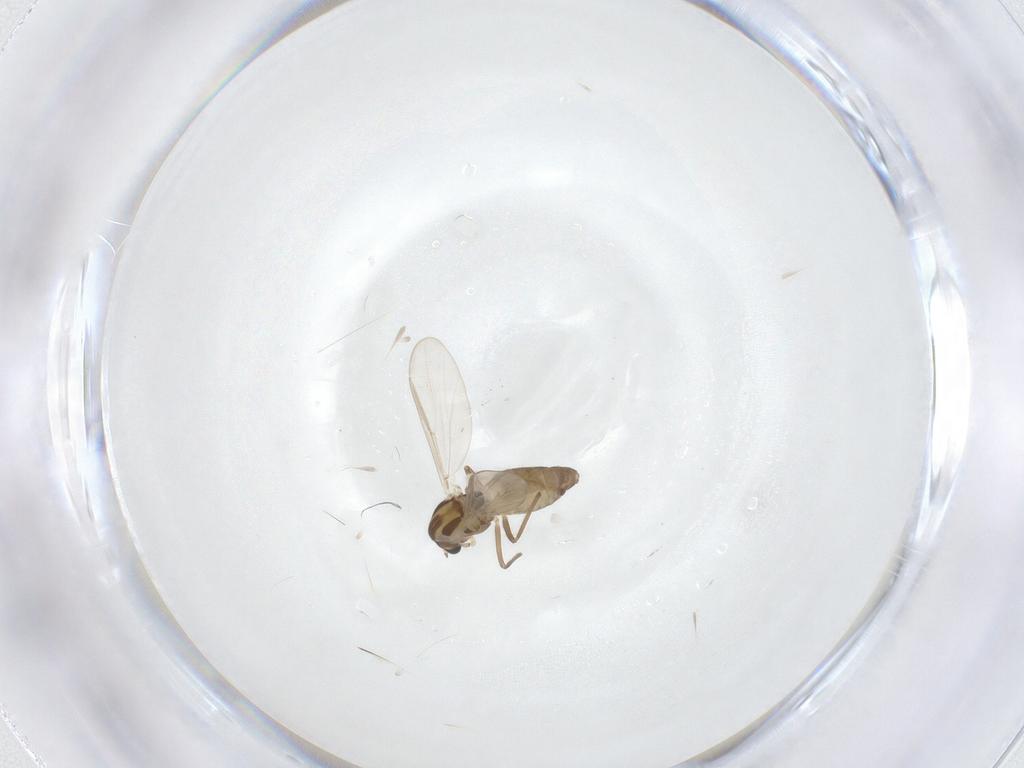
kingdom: Animalia
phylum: Arthropoda
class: Insecta
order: Diptera
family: Chironomidae
